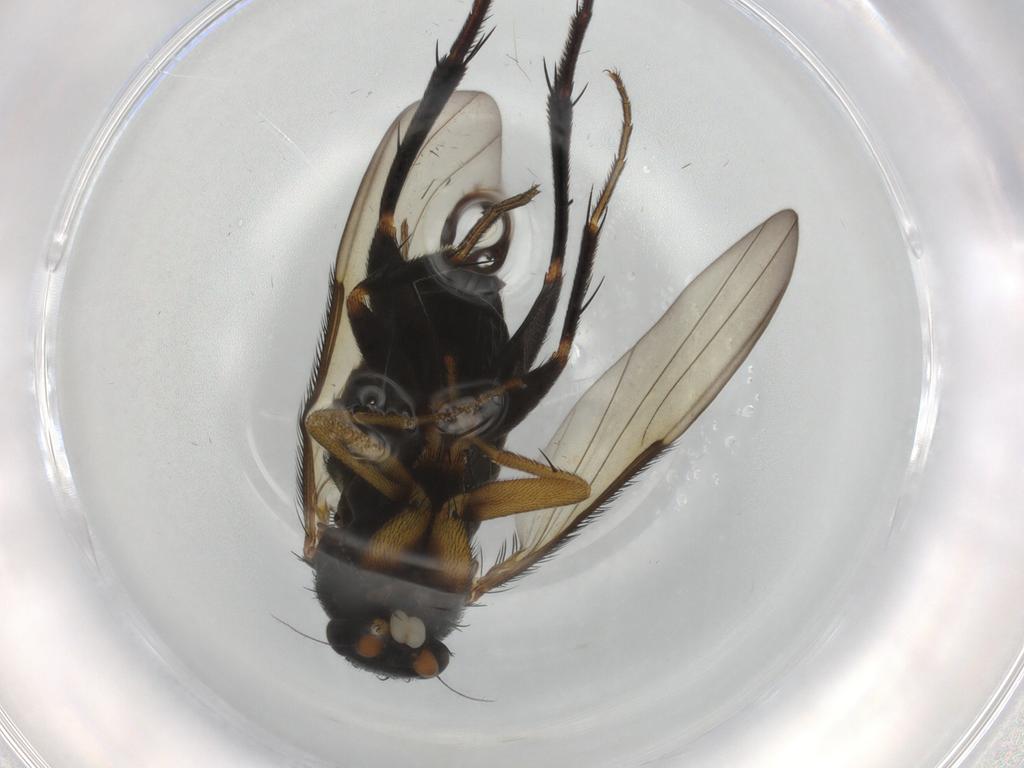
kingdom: Animalia
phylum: Arthropoda
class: Insecta
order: Diptera
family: Phoridae
